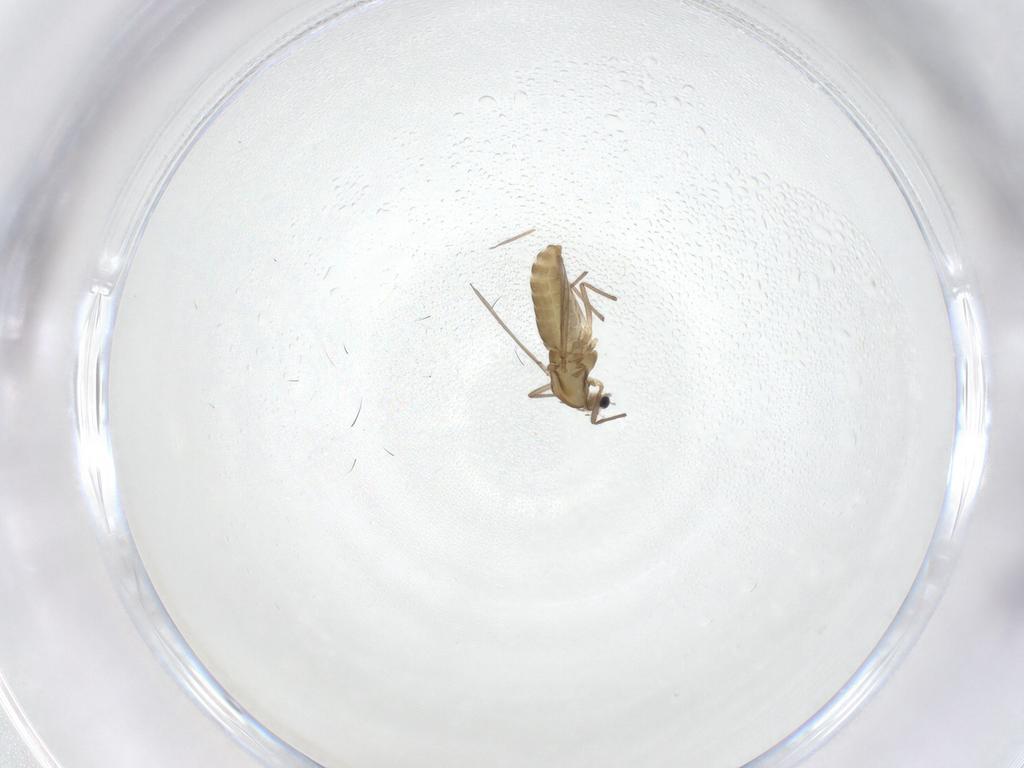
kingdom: Animalia
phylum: Arthropoda
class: Insecta
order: Diptera
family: Chironomidae
